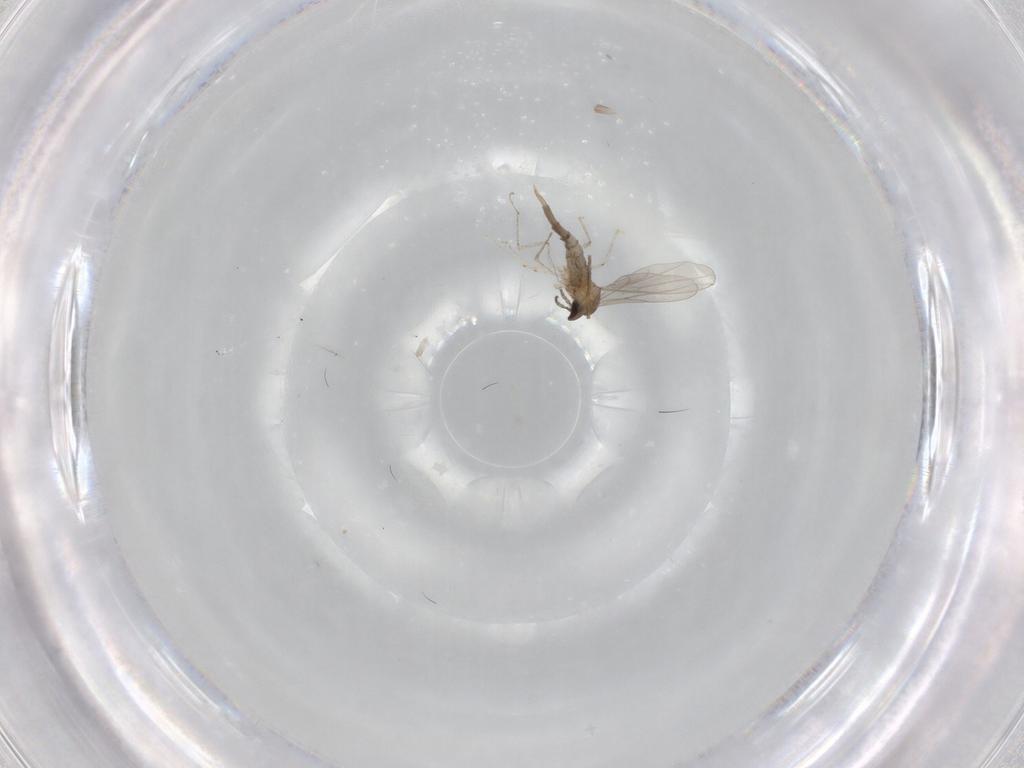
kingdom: Animalia
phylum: Arthropoda
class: Insecta
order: Diptera
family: Cecidomyiidae
